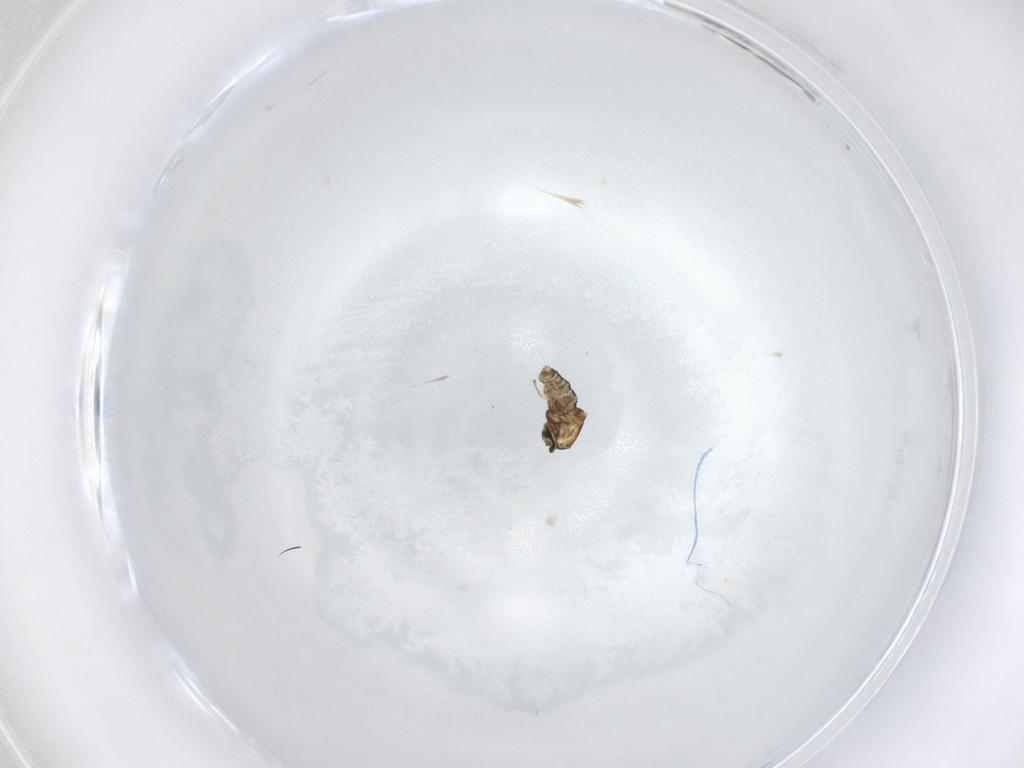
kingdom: Animalia
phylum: Arthropoda
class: Insecta
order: Diptera
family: Ceratopogonidae
